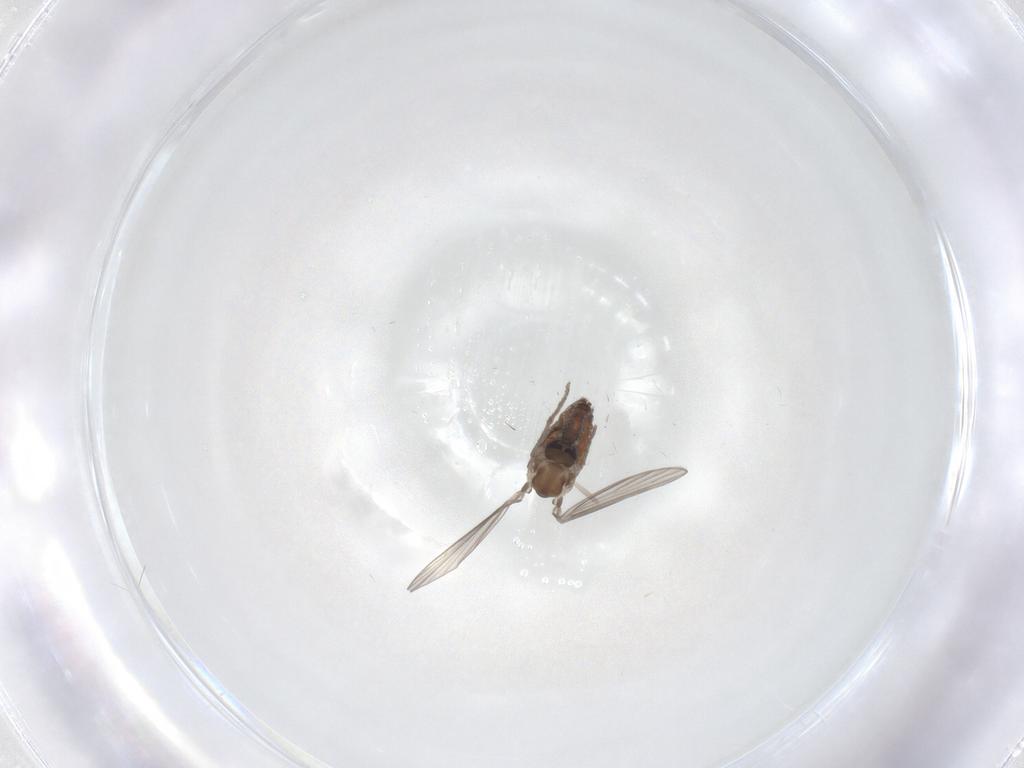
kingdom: Animalia
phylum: Arthropoda
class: Insecta
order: Diptera
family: Psychodidae
